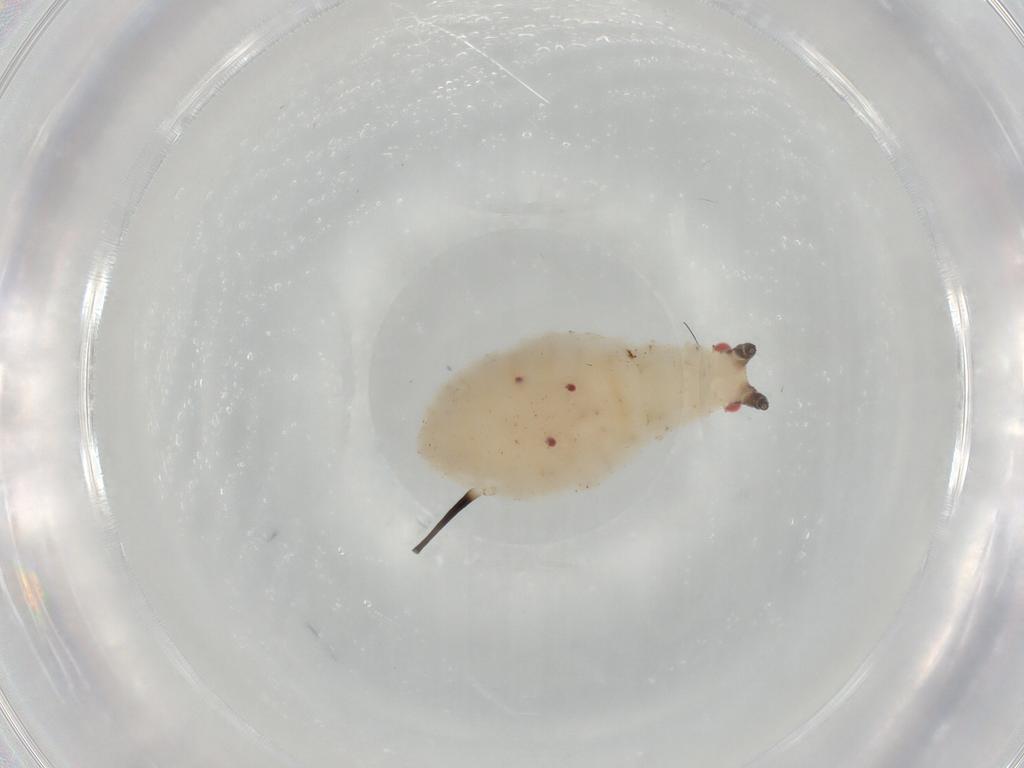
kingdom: Animalia
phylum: Arthropoda
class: Insecta
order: Hemiptera
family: Aphididae
